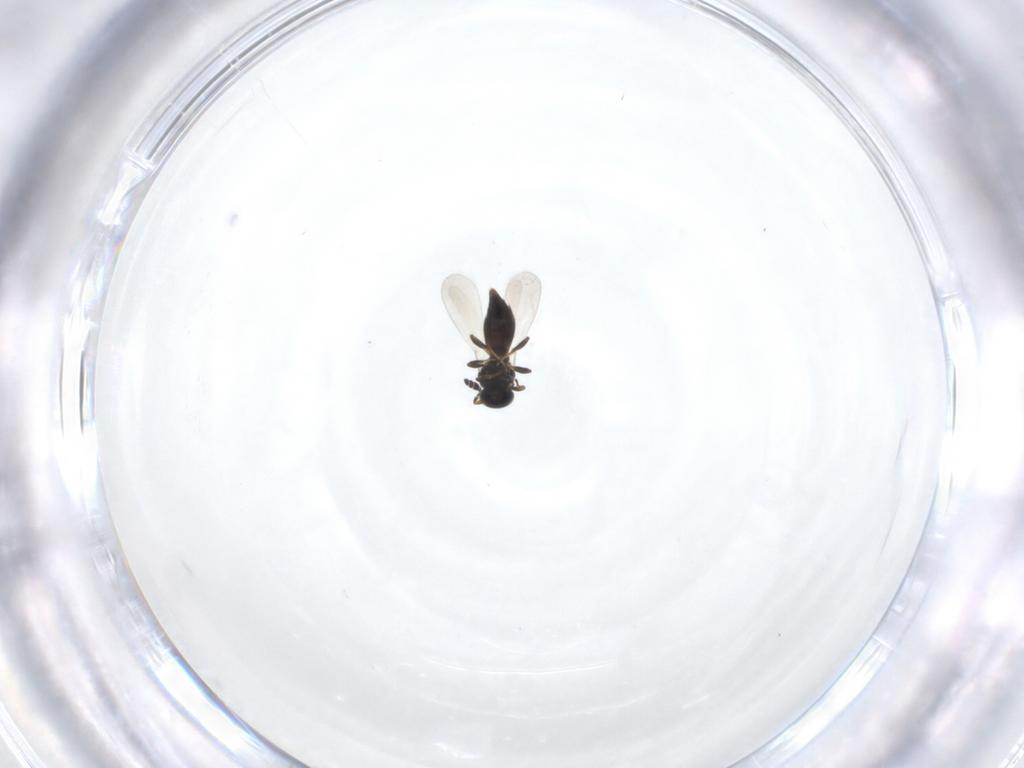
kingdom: Animalia
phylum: Arthropoda
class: Insecta
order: Hymenoptera
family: Platygastridae
